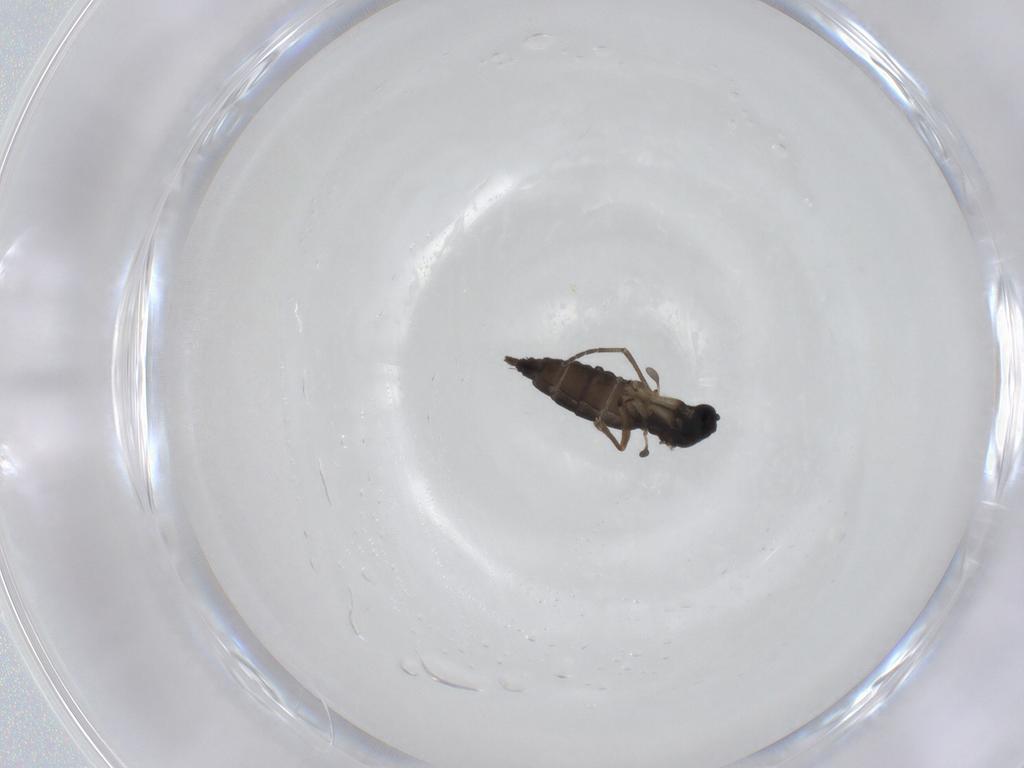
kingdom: Animalia
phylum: Arthropoda
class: Insecta
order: Diptera
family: Sciaridae
